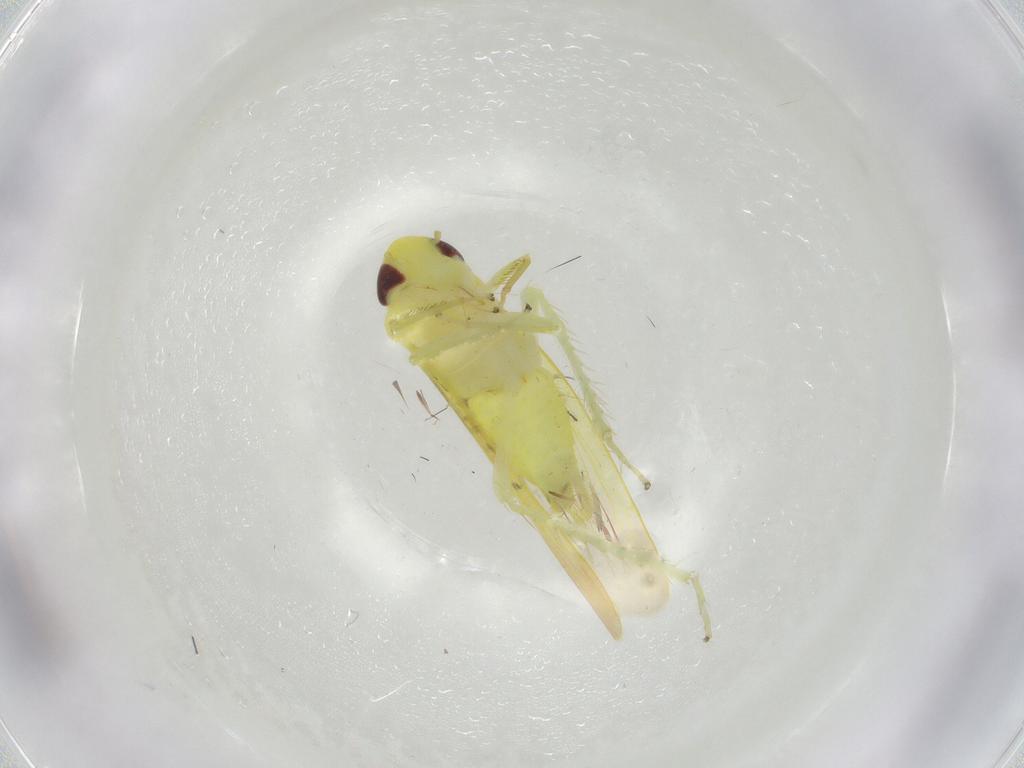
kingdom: Animalia
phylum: Arthropoda
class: Insecta
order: Hemiptera
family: Cicadellidae
